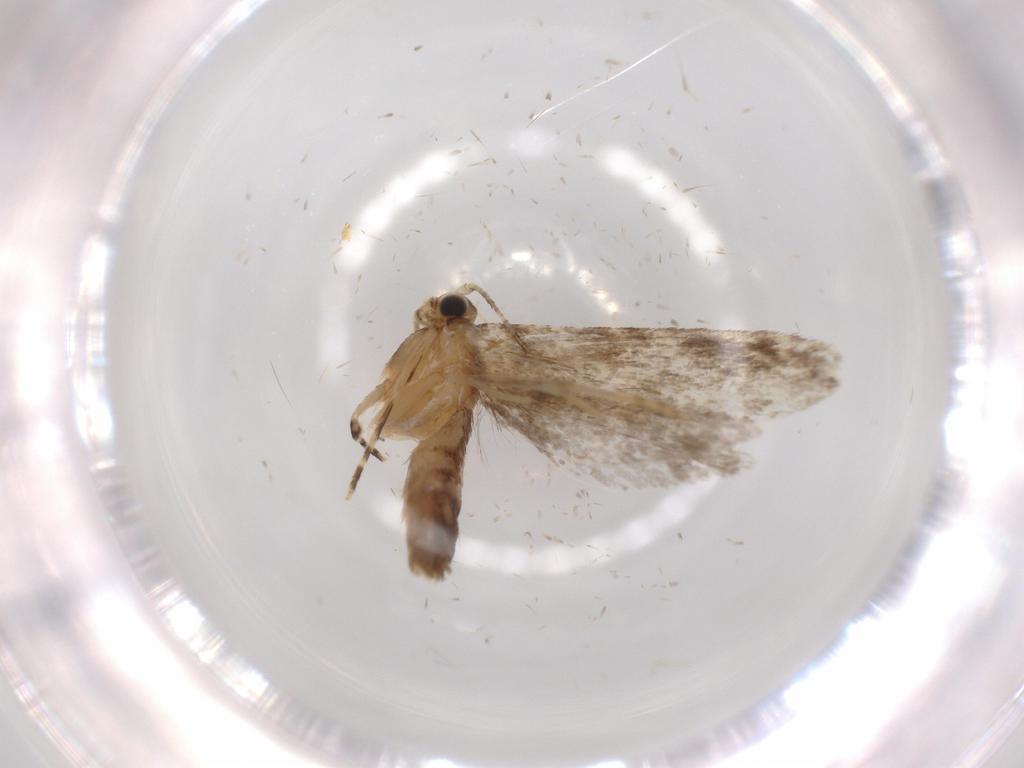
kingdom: Animalia
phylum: Arthropoda
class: Insecta
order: Lepidoptera
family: Tineidae
